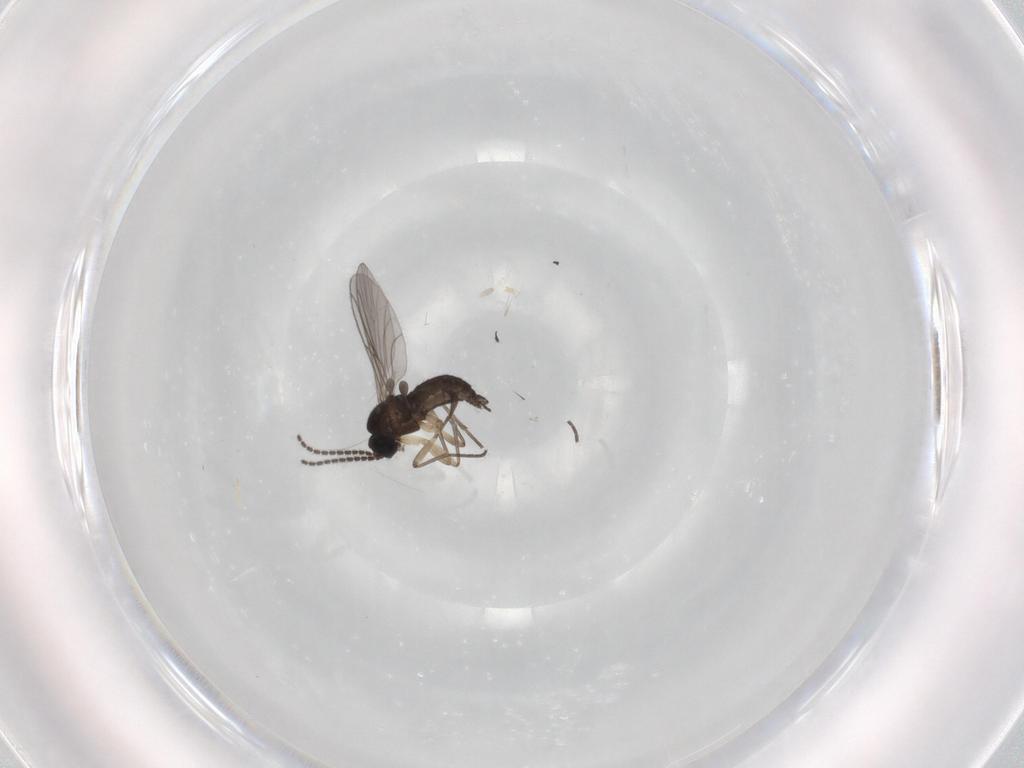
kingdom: Animalia
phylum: Arthropoda
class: Insecta
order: Diptera
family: Sciaridae
